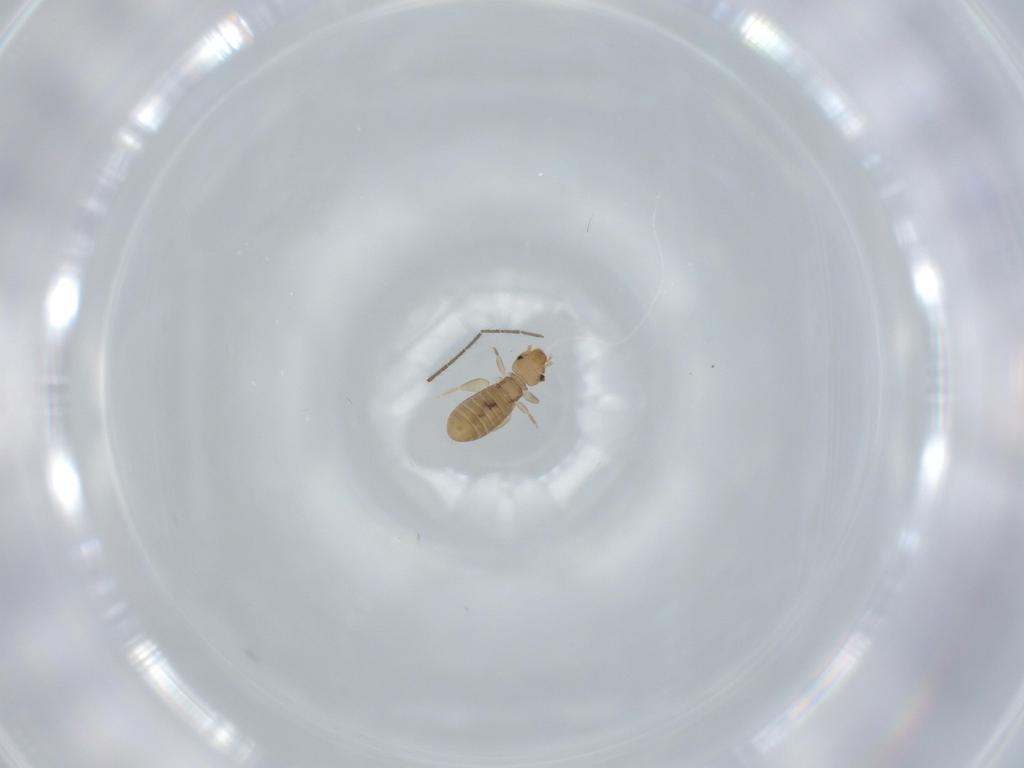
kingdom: Animalia
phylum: Arthropoda
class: Insecta
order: Psocodea
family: Liposcelididae
